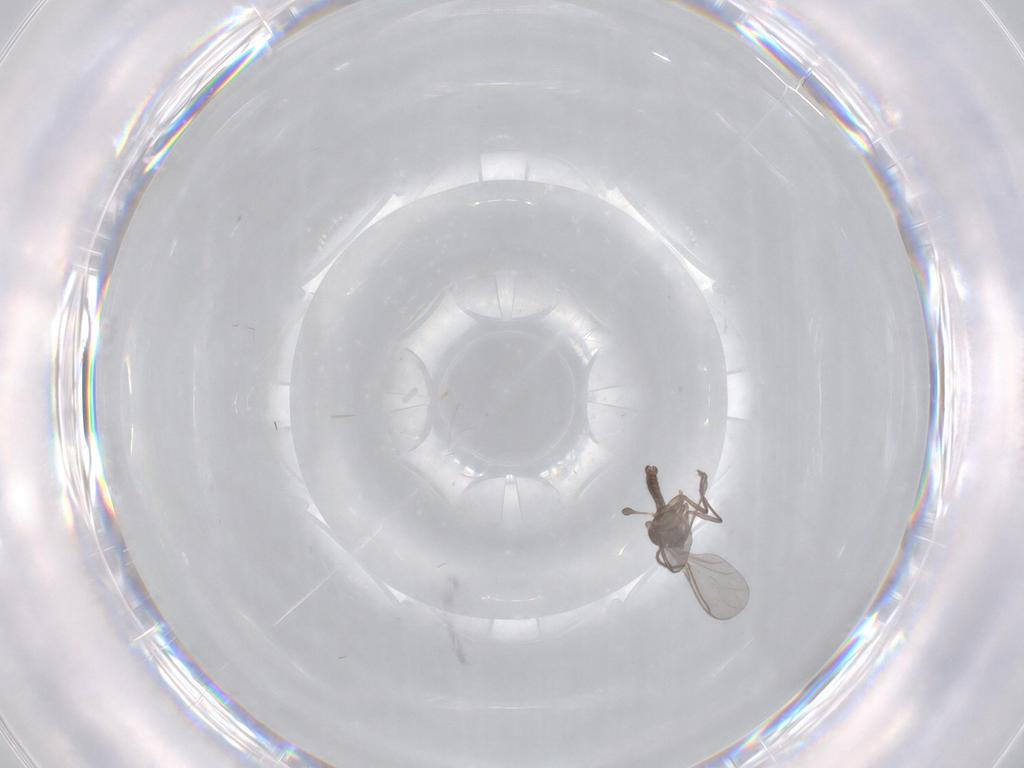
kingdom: Animalia
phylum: Arthropoda
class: Insecta
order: Diptera
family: Sciaridae
